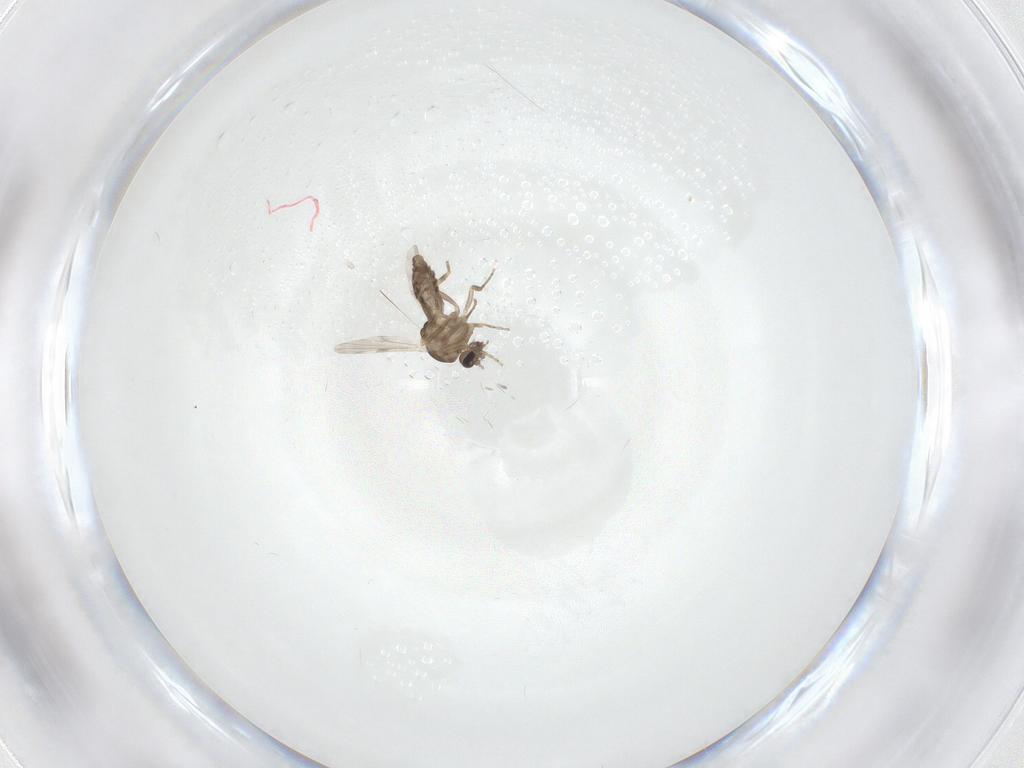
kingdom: Animalia
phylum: Arthropoda
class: Insecta
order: Diptera
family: Ceratopogonidae
